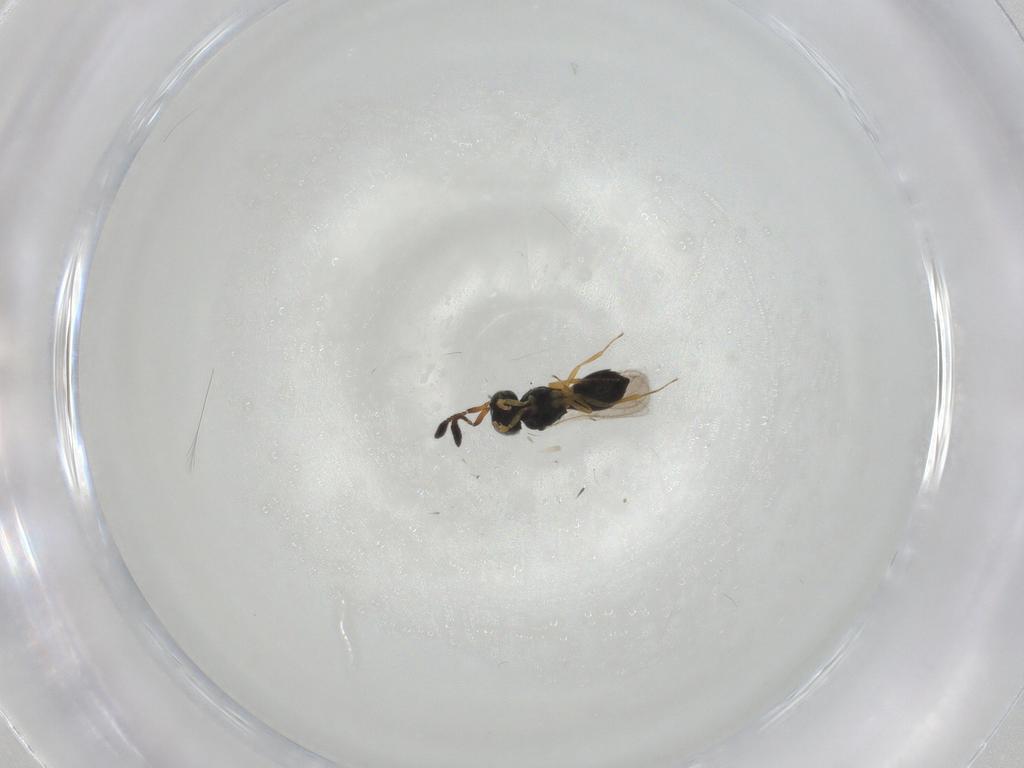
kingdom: Animalia
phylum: Arthropoda
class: Insecta
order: Hymenoptera
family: Scelionidae
